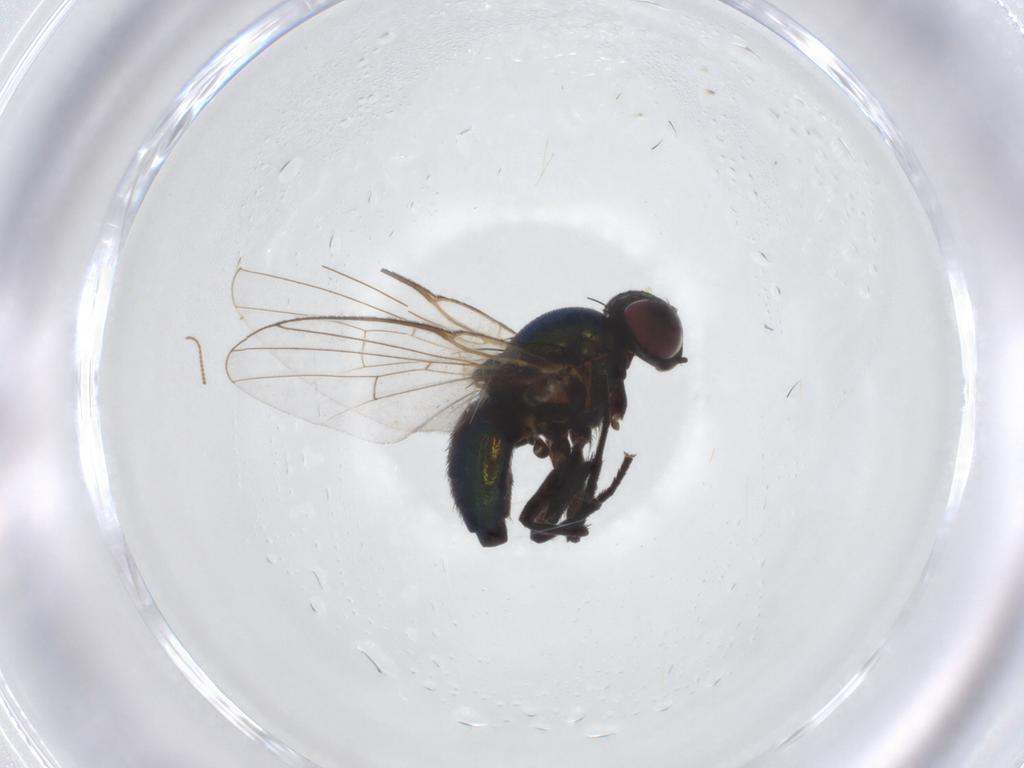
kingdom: Animalia
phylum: Arthropoda
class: Insecta
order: Diptera
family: Agromyzidae
